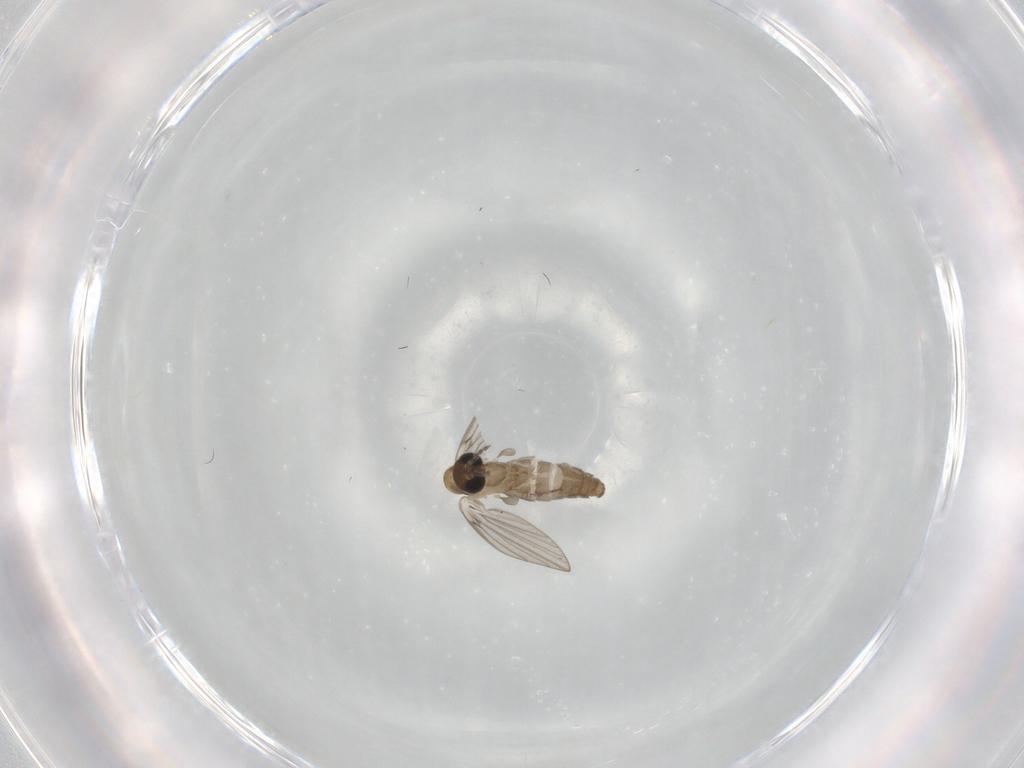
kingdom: Animalia
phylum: Arthropoda
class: Insecta
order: Diptera
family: Psychodidae
